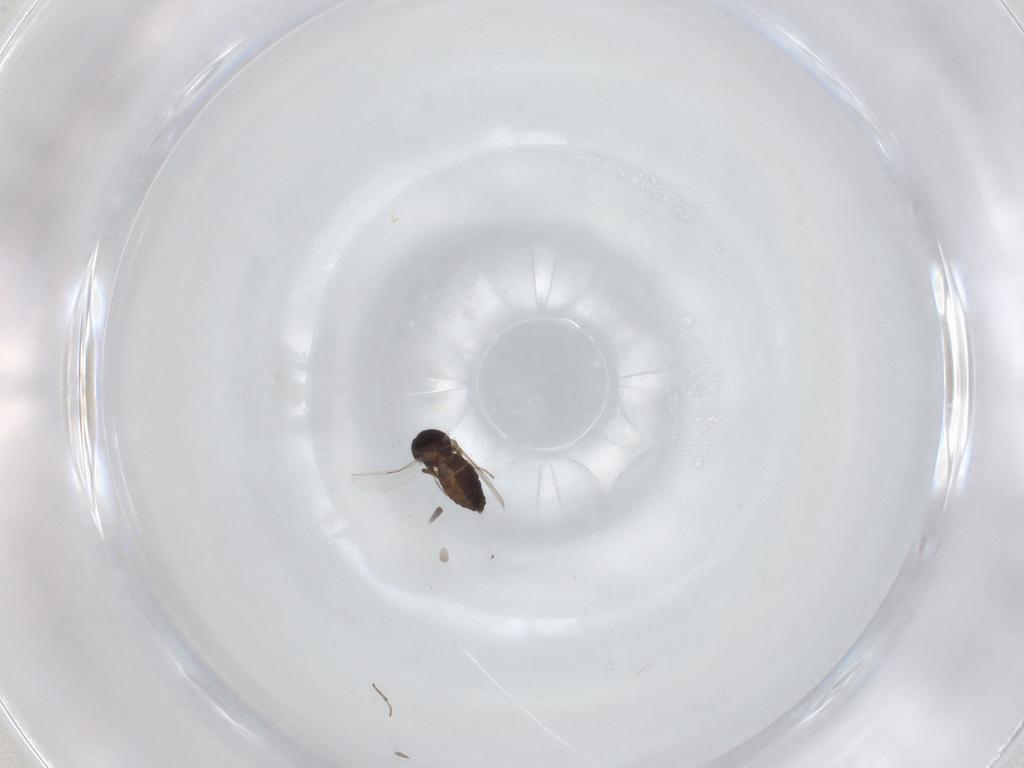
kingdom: Animalia
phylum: Arthropoda
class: Insecta
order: Diptera
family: Ceratopogonidae
